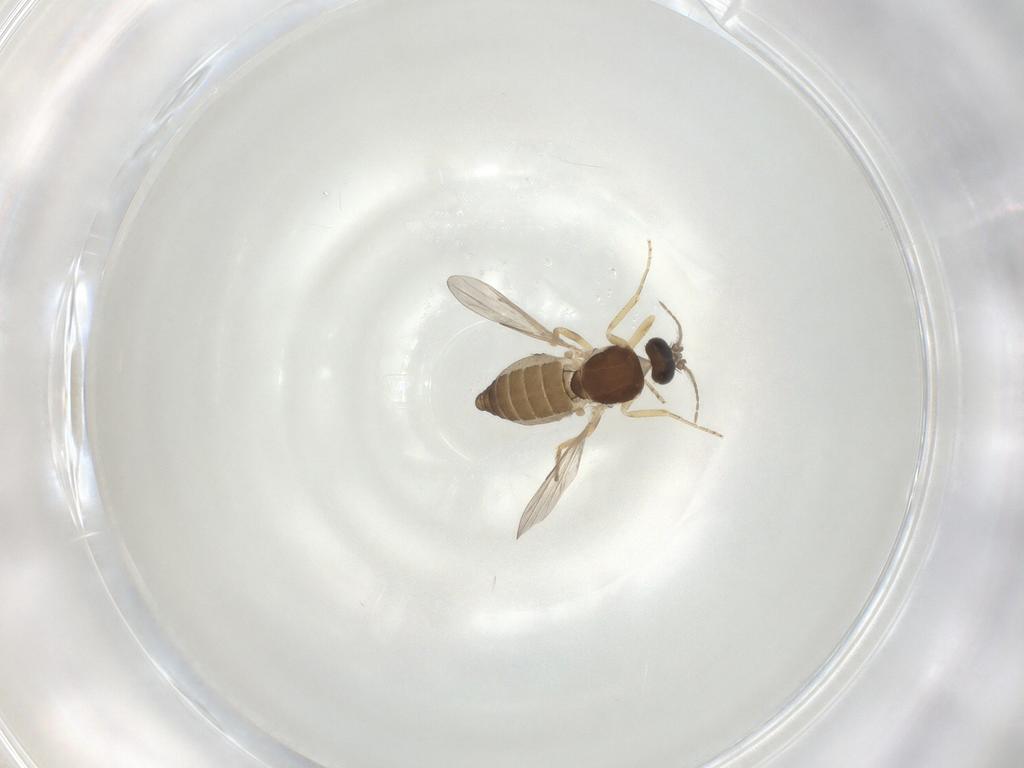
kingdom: Animalia
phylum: Arthropoda
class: Insecta
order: Diptera
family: Ceratopogonidae
